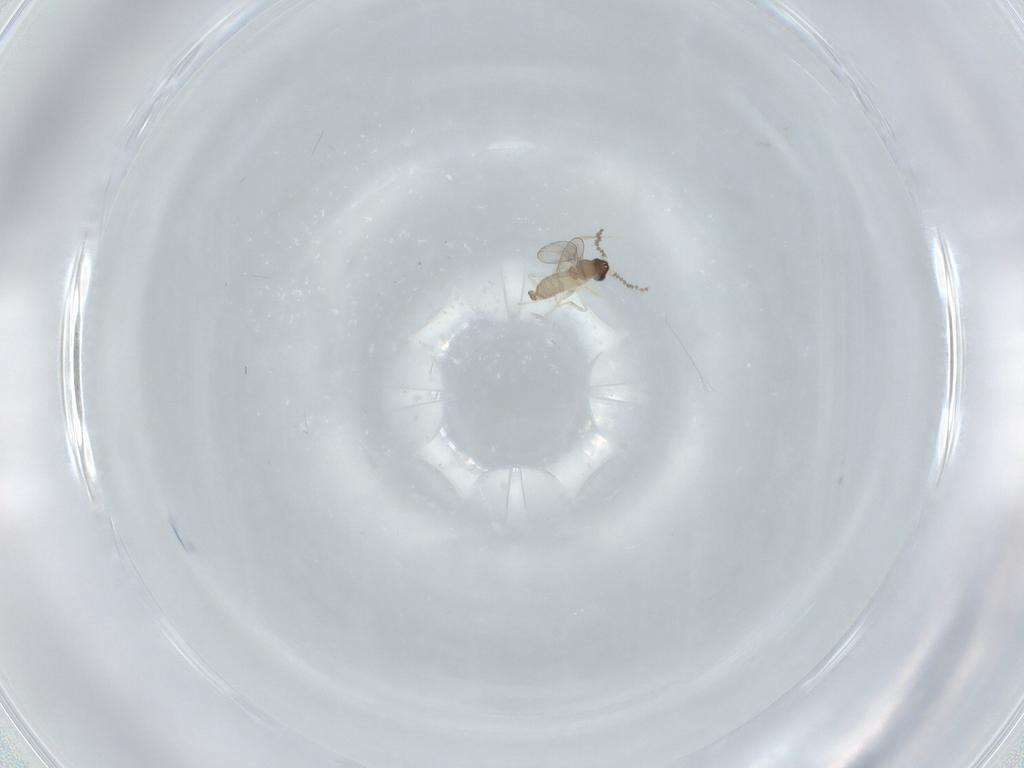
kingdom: Animalia
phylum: Arthropoda
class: Insecta
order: Diptera
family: Cecidomyiidae
